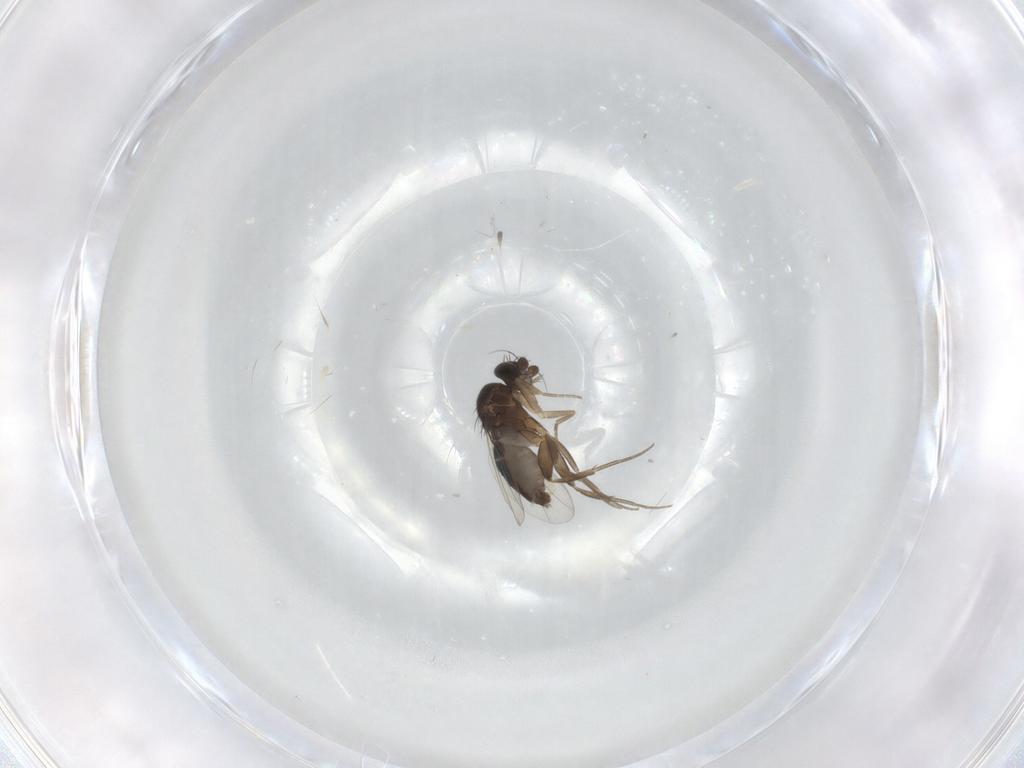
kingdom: Animalia
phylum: Arthropoda
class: Insecta
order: Diptera
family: Phoridae
